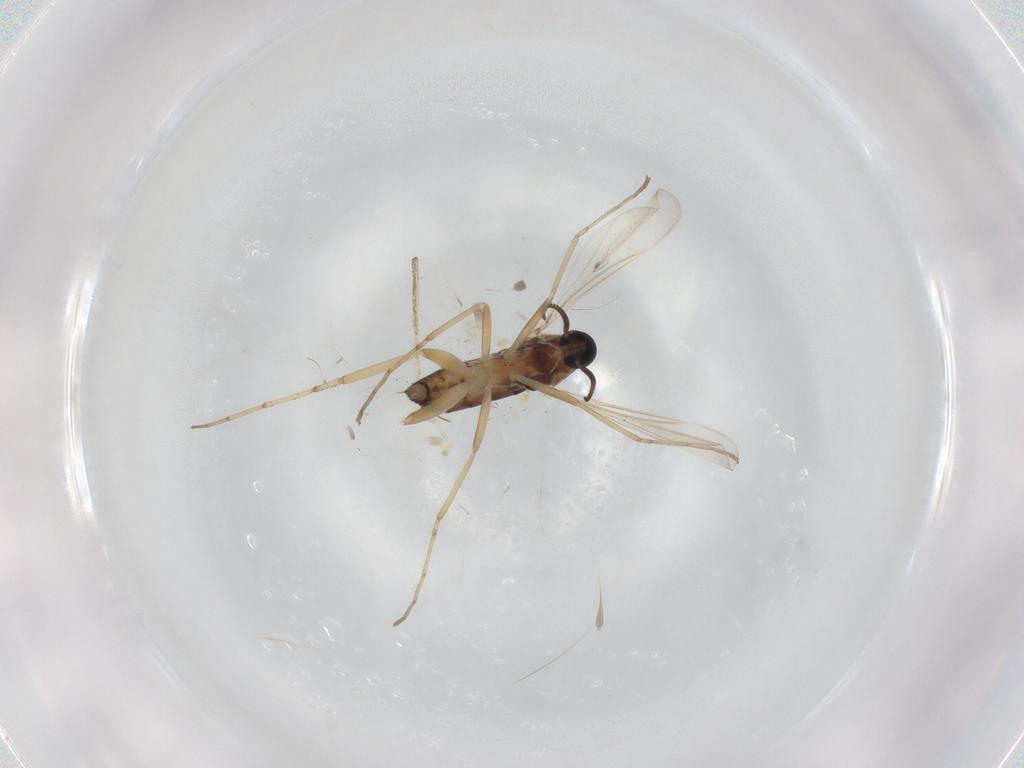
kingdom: Animalia
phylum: Arthropoda
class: Insecta
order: Diptera
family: Cecidomyiidae
